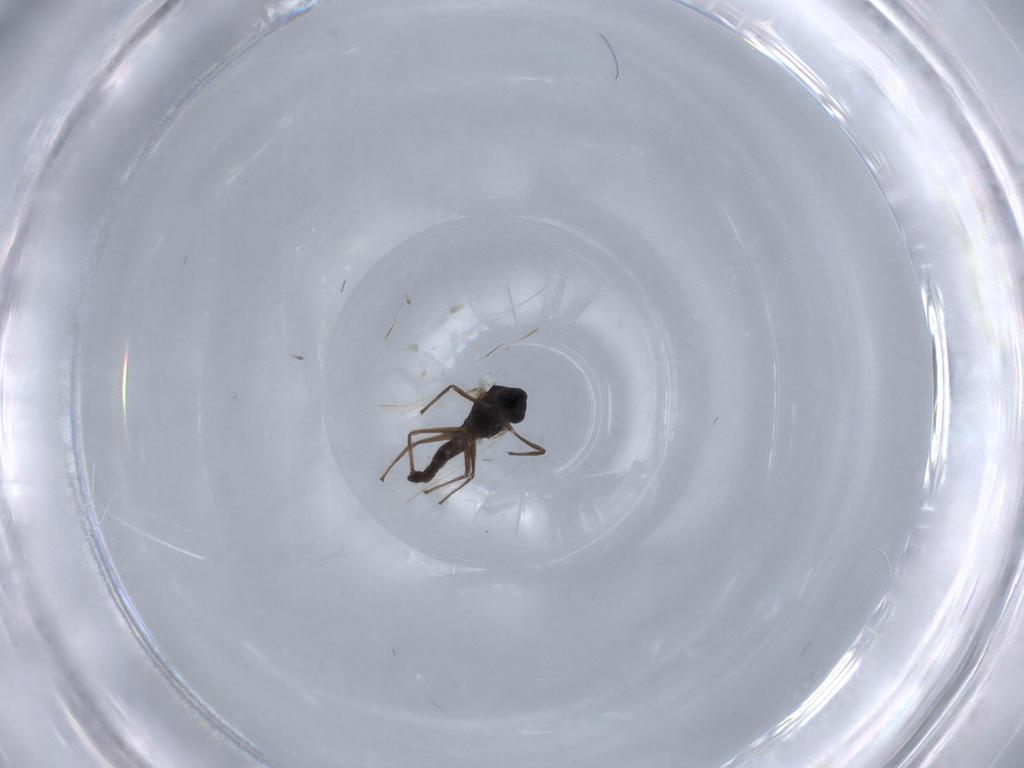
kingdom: Animalia
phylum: Arthropoda
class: Insecta
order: Diptera
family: Chironomidae
